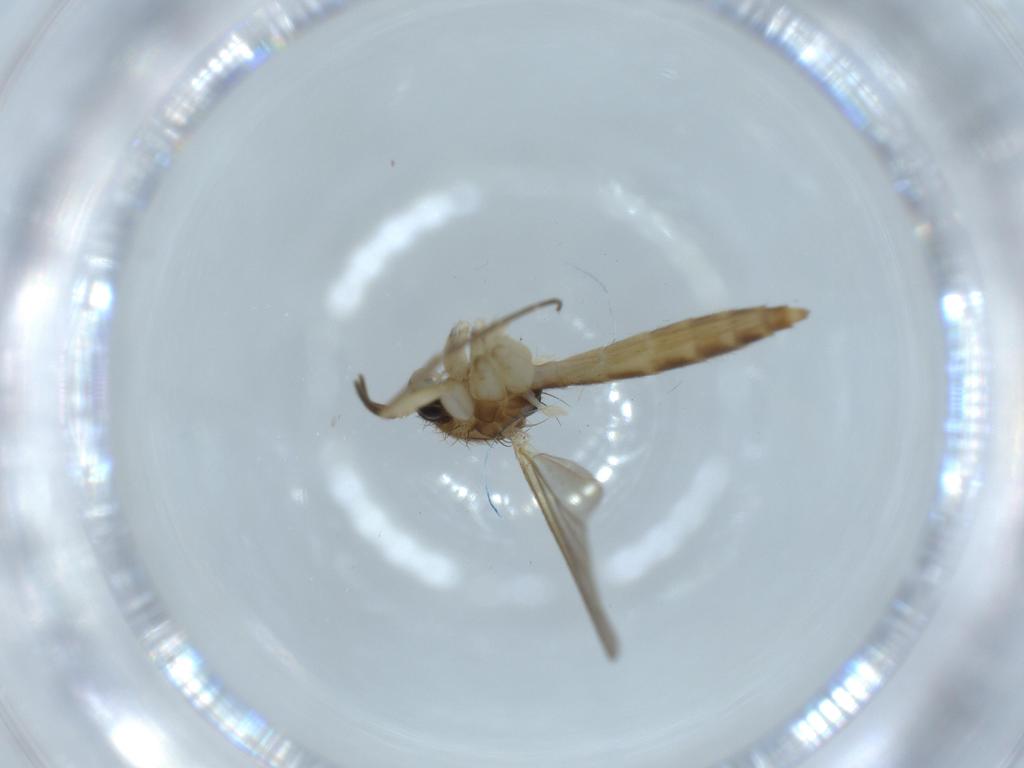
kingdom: Animalia
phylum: Arthropoda
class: Insecta
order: Diptera
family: Mycetophilidae
